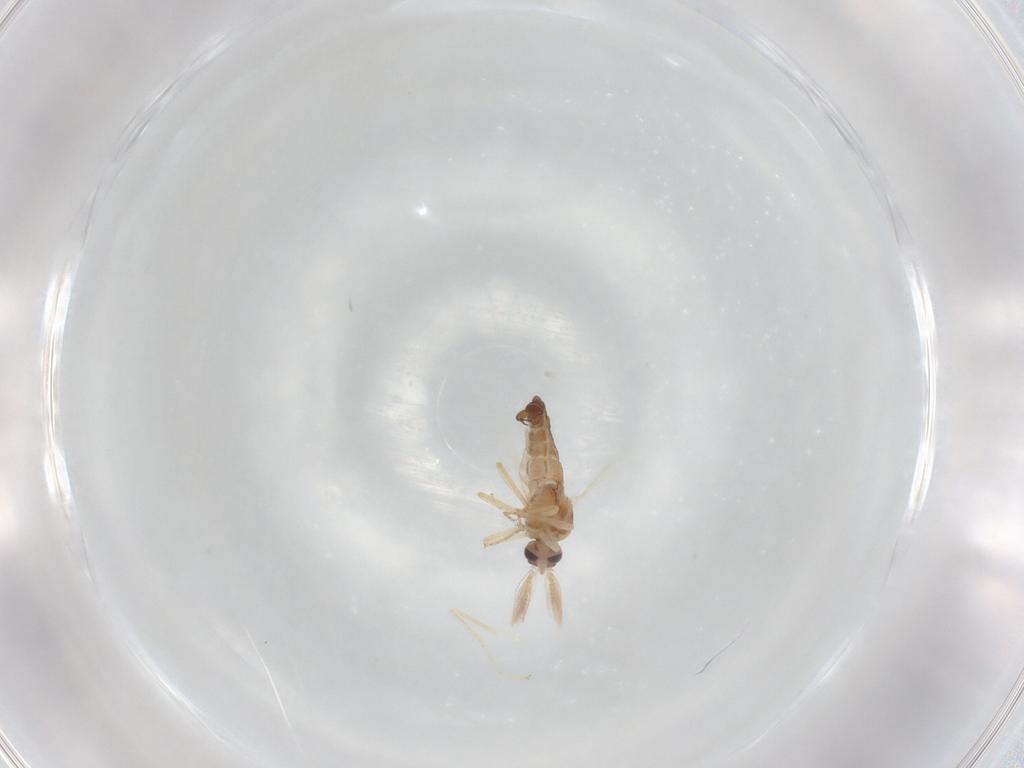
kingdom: Animalia
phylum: Arthropoda
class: Insecta
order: Diptera
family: Ceratopogonidae
